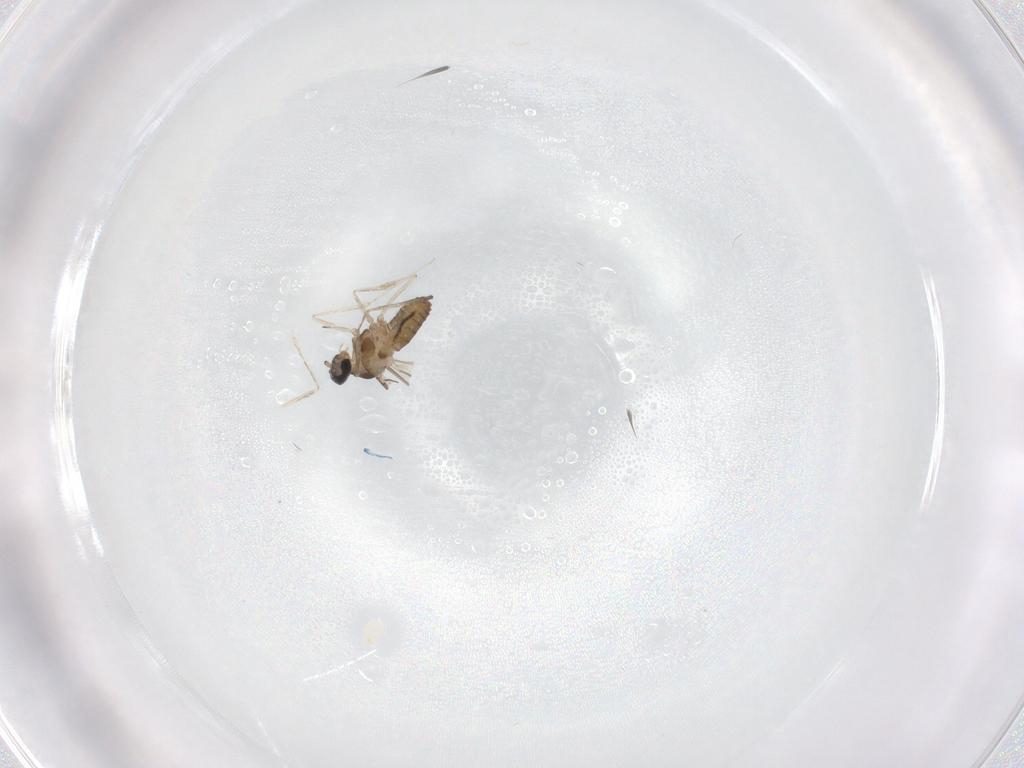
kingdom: Animalia
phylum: Arthropoda
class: Insecta
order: Diptera
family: Cecidomyiidae
